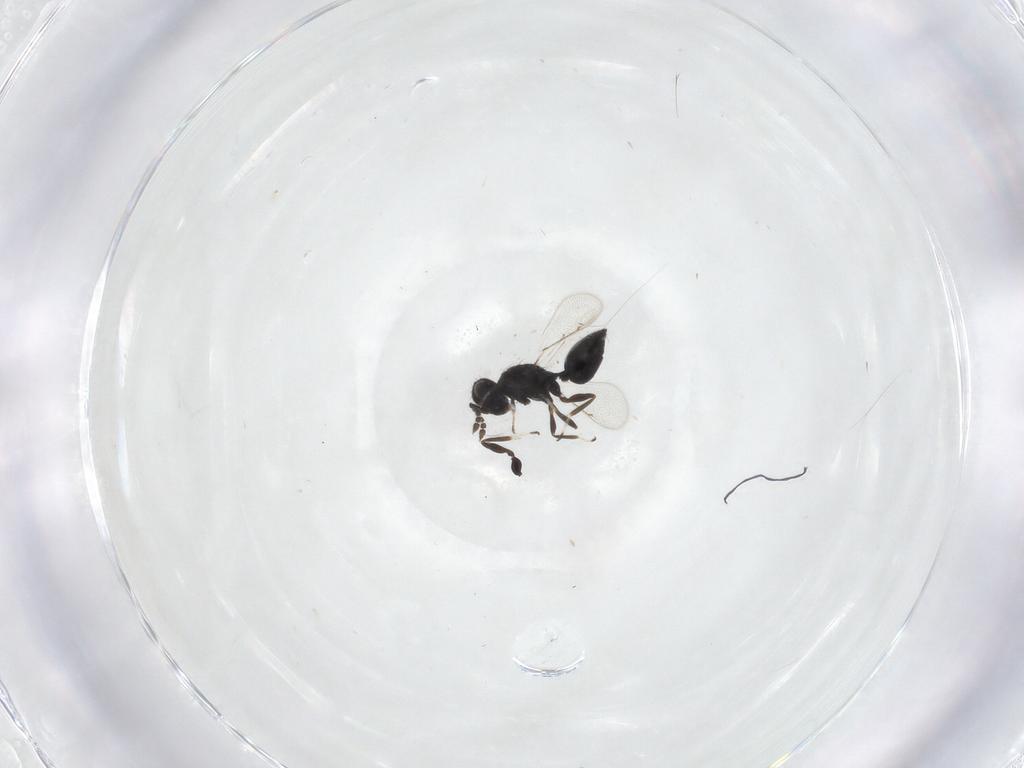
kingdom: Animalia
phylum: Arthropoda
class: Insecta
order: Hymenoptera
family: Eulophidae
